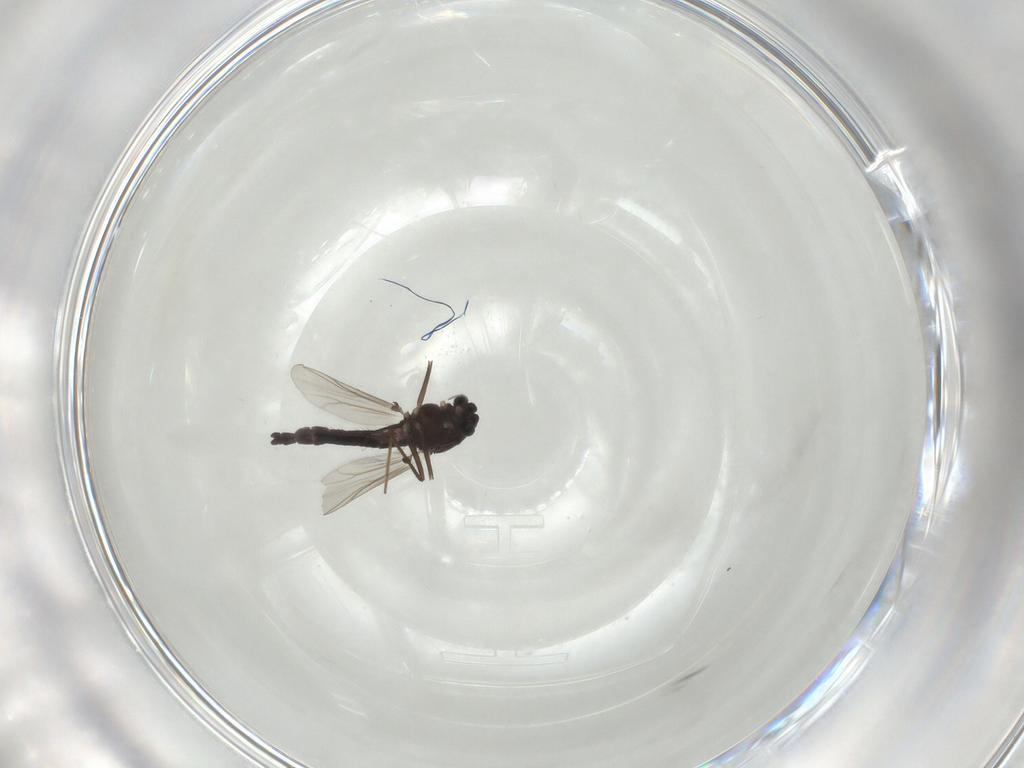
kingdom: Animalia
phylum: Arthropoda
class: Insecta
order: Diptera
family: Chironomidae
